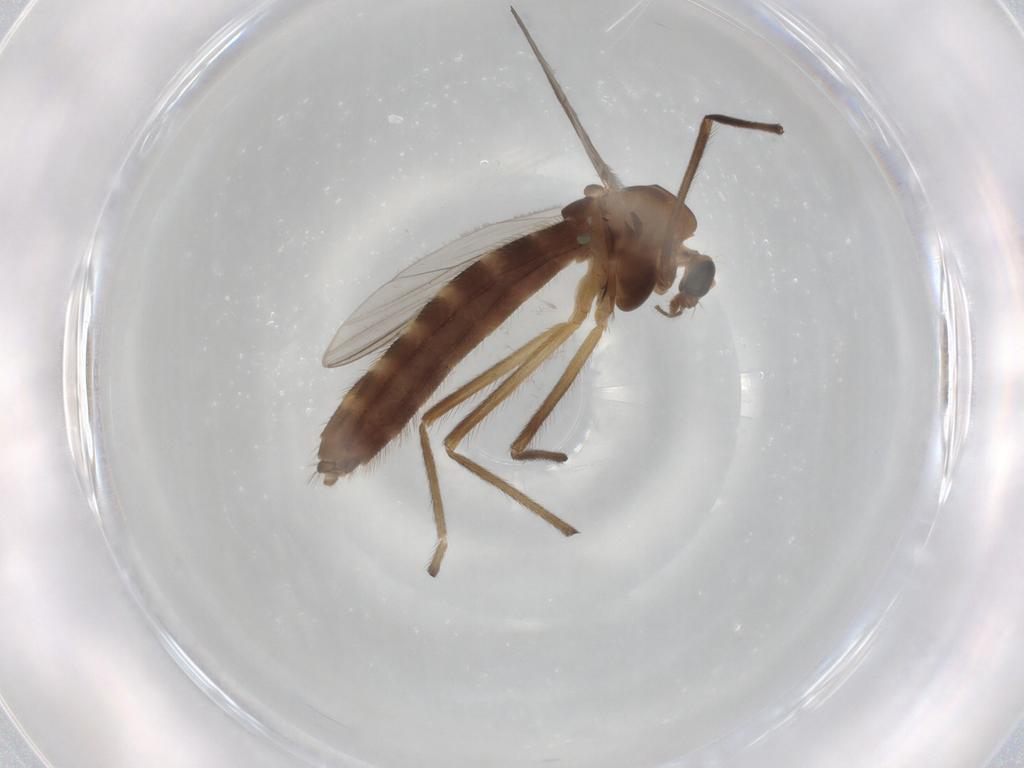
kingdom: Animalia
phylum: Arthropoda
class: Insecta
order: Diptera
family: Chironomidae
